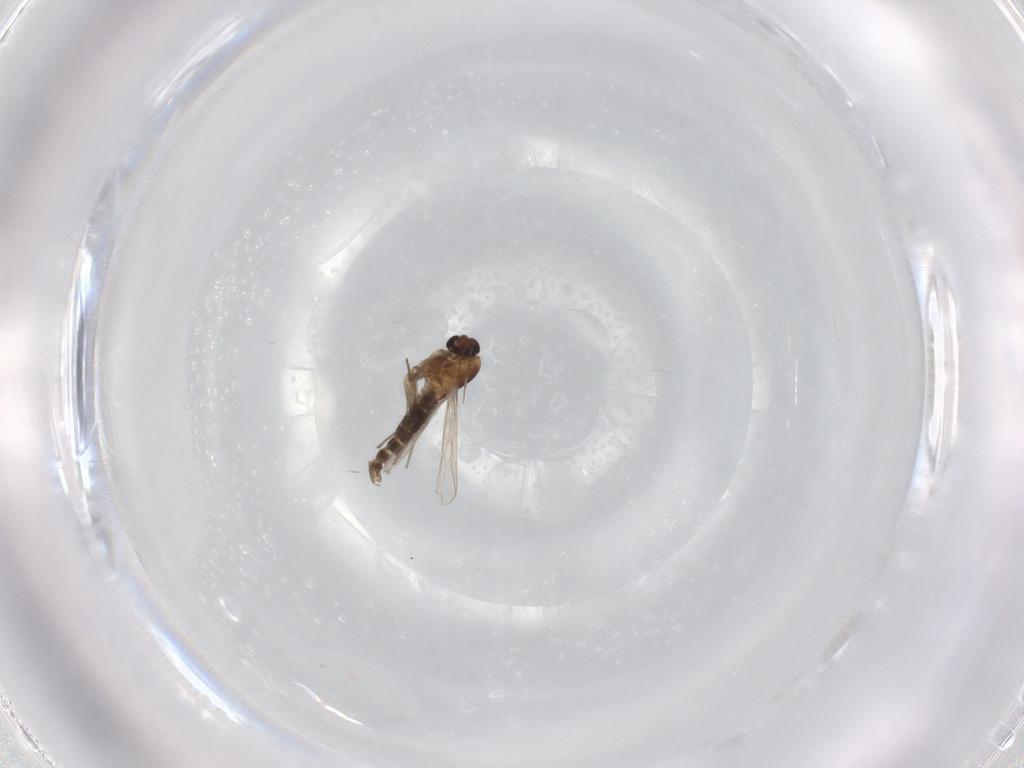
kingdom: Animalia
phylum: Arthropoda
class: Insecta
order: Diptera
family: Chironomidae
